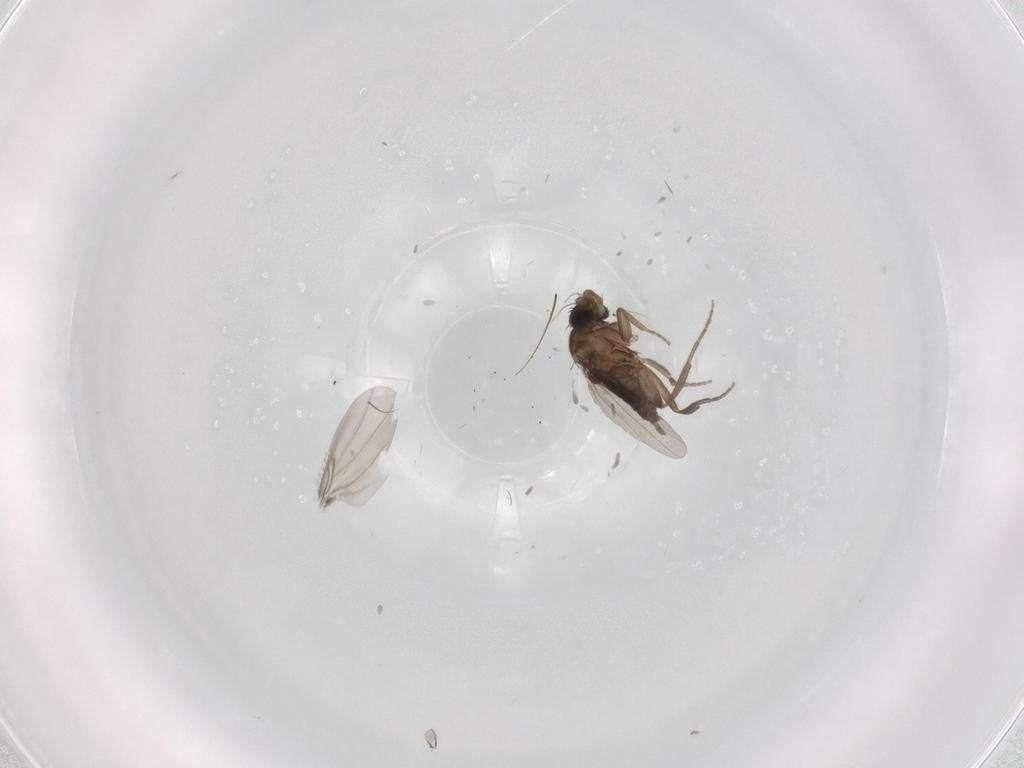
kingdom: Animalia
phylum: Arthropoda
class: Insecta
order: Diptera
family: Phoridae
